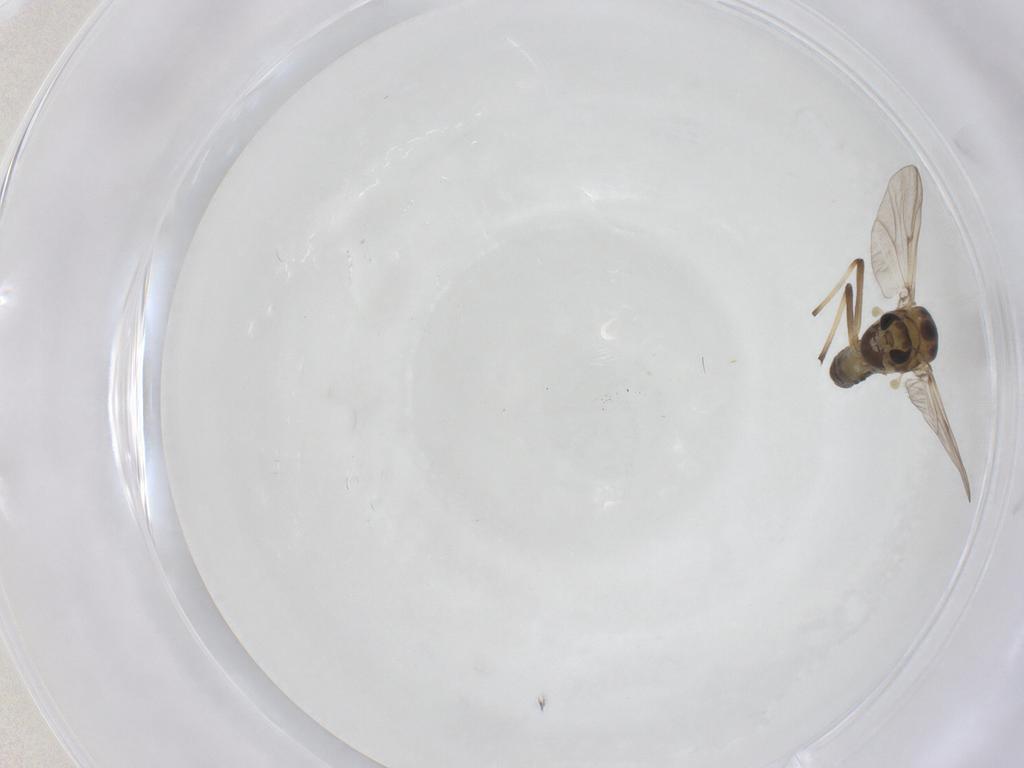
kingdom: Animalia
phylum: Arthropoda
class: Insecta
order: Diptera
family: Chironomidae
